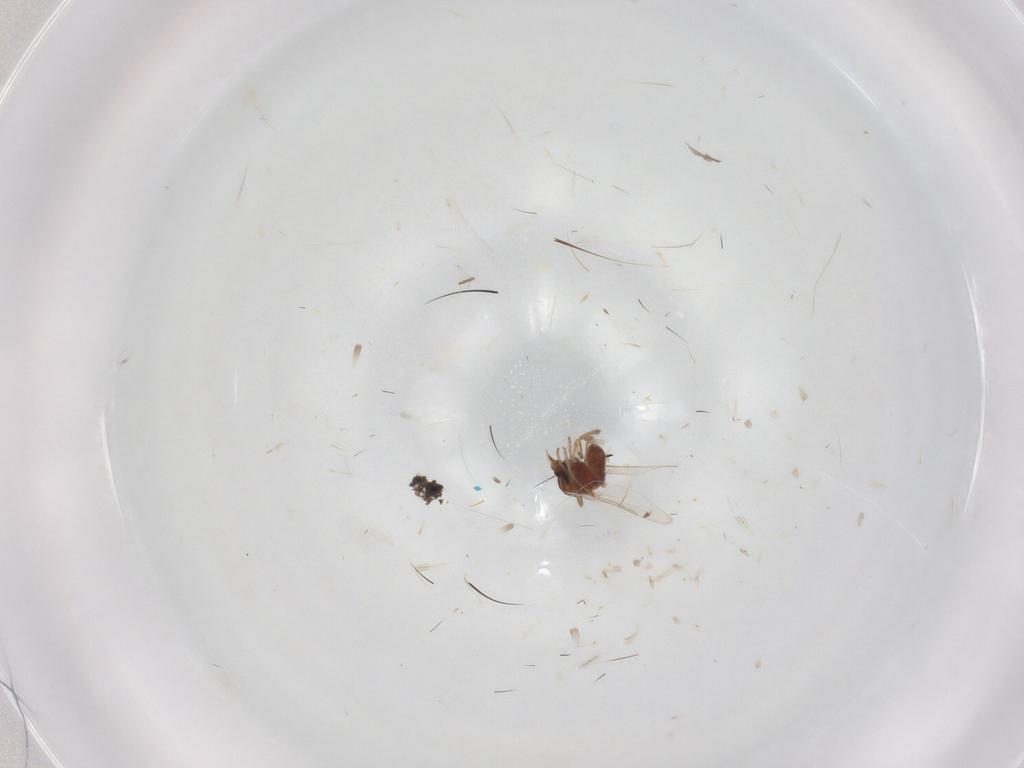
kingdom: Animalia
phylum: Arthropoda
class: Insecta
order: Diptera
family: Ceratopogonidae
